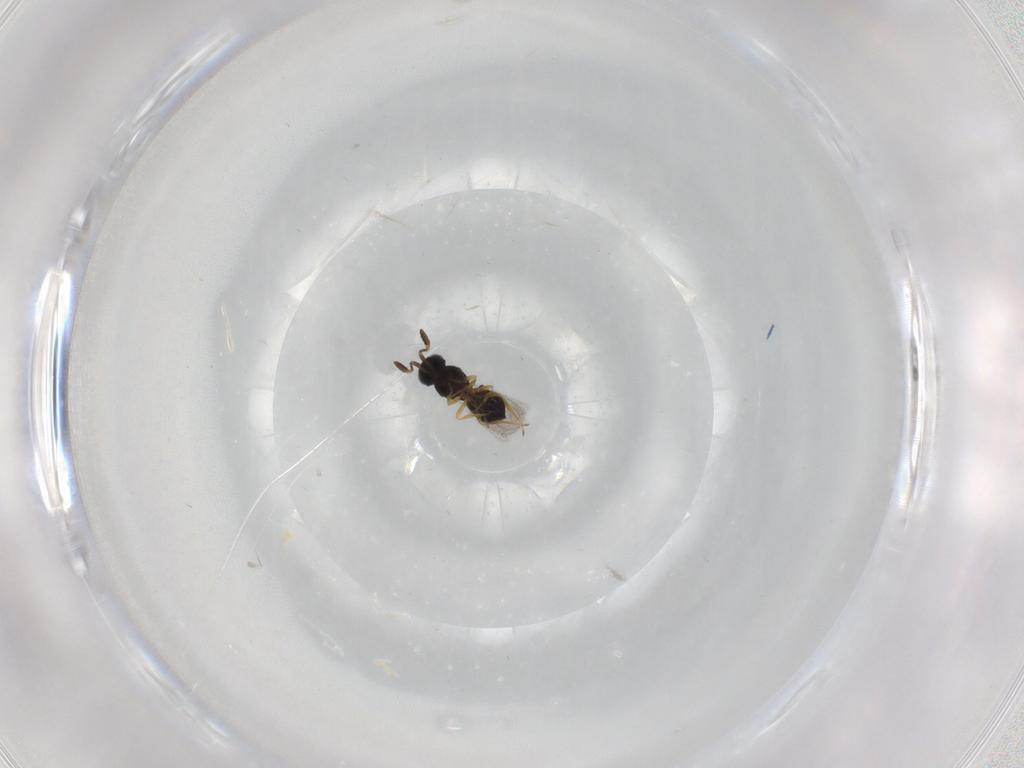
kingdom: Animalia
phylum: Arthropoda
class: Insecta
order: Hymenoptera
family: Scelionidae
